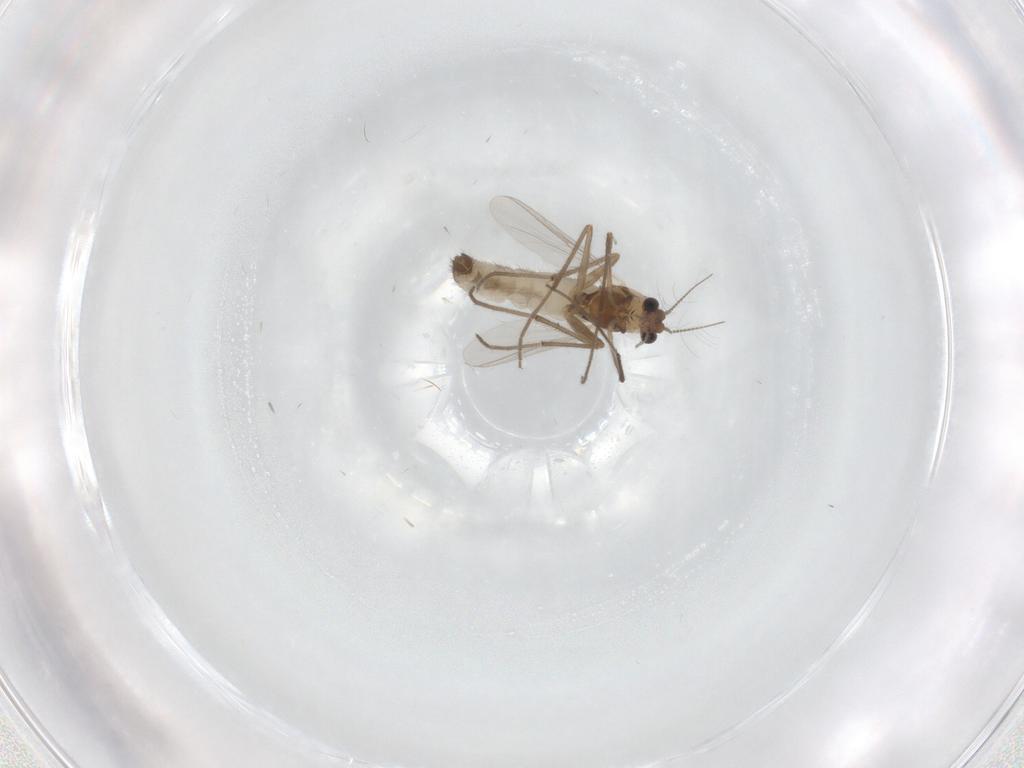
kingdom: Animalia
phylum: Arthropoda
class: Insecta
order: Diptera
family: Chironomidae
